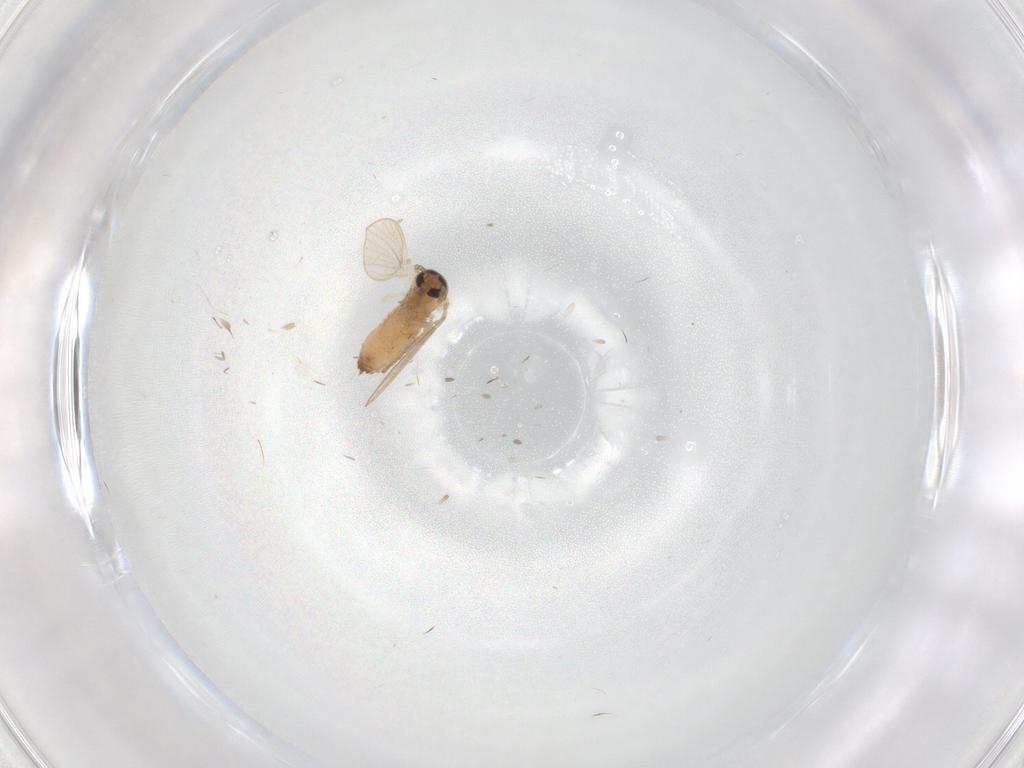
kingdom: Animalia
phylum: Arthropoda
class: Insecta
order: Diptera
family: Psychodidae
